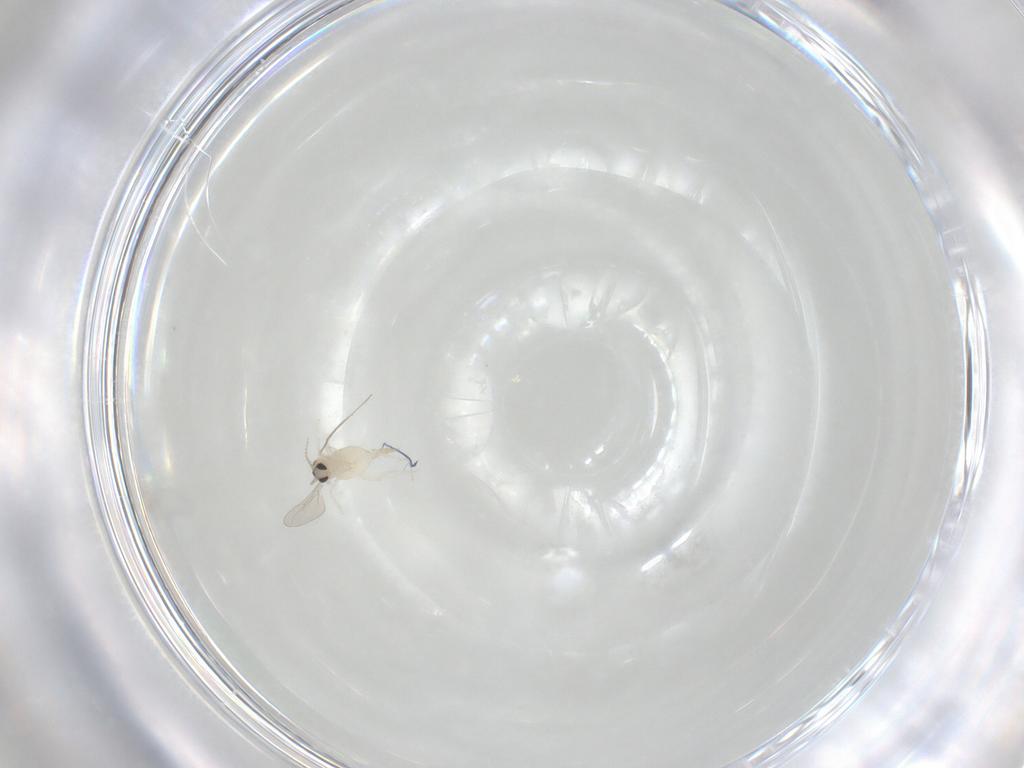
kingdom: Animalia
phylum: Arthropoda
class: Insecta
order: Diptera
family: Cecidomyiidae
